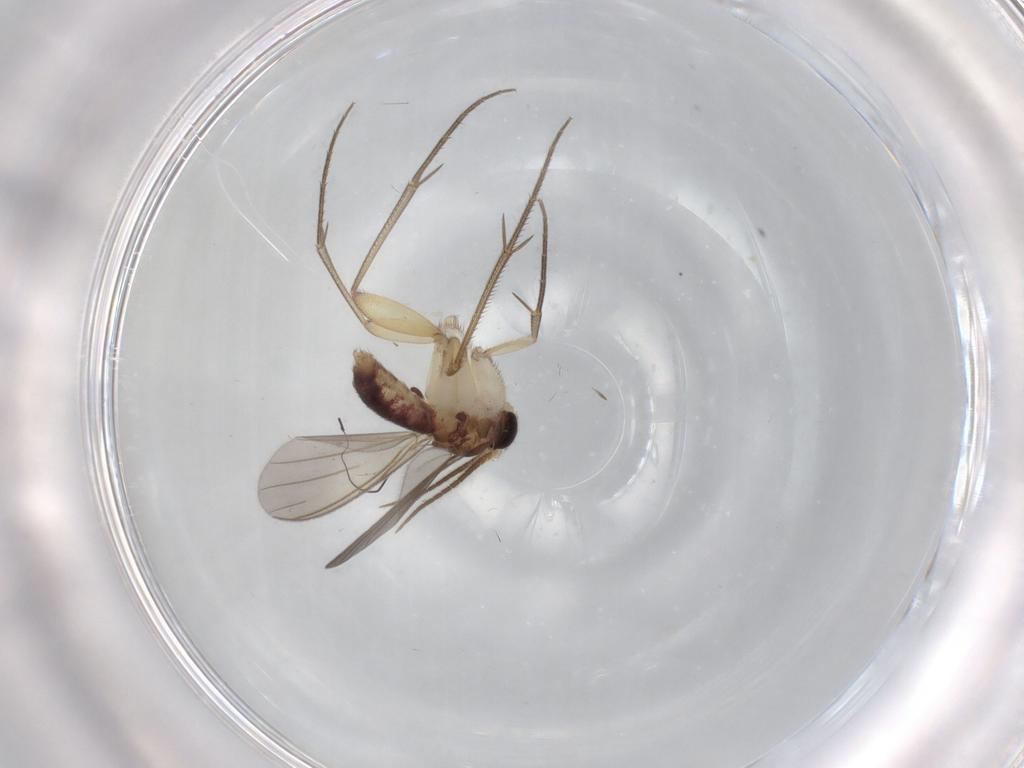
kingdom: Animalia
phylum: Arthropoda
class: Insecta
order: Diptera
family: Mycetophilidae
